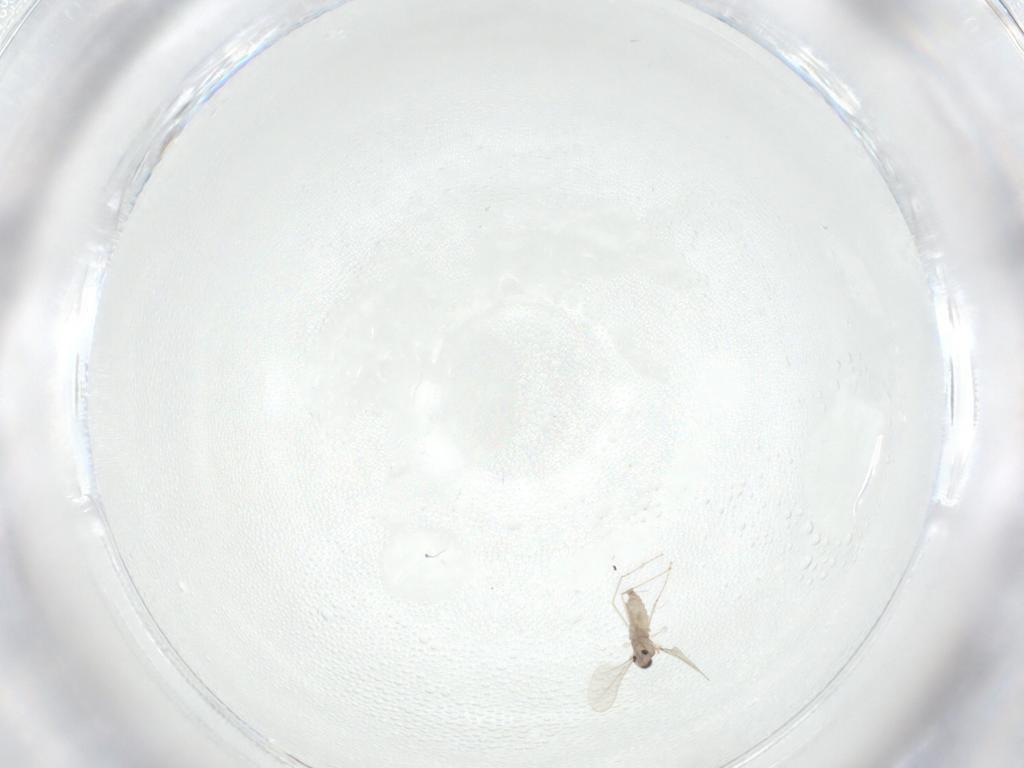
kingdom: Animalia
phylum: Arthropoda
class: Insecta
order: Diptera
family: Cecidomyiidae
